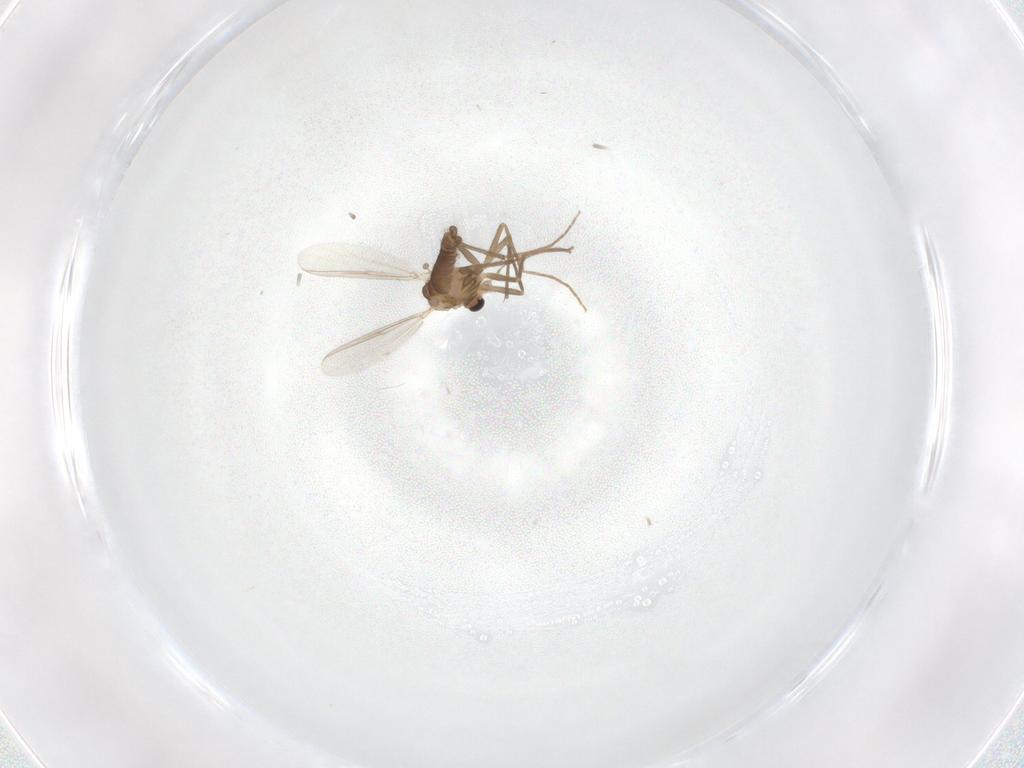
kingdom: Animalia
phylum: Arthropoda
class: Insecta
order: Diptera
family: Chironomidae
